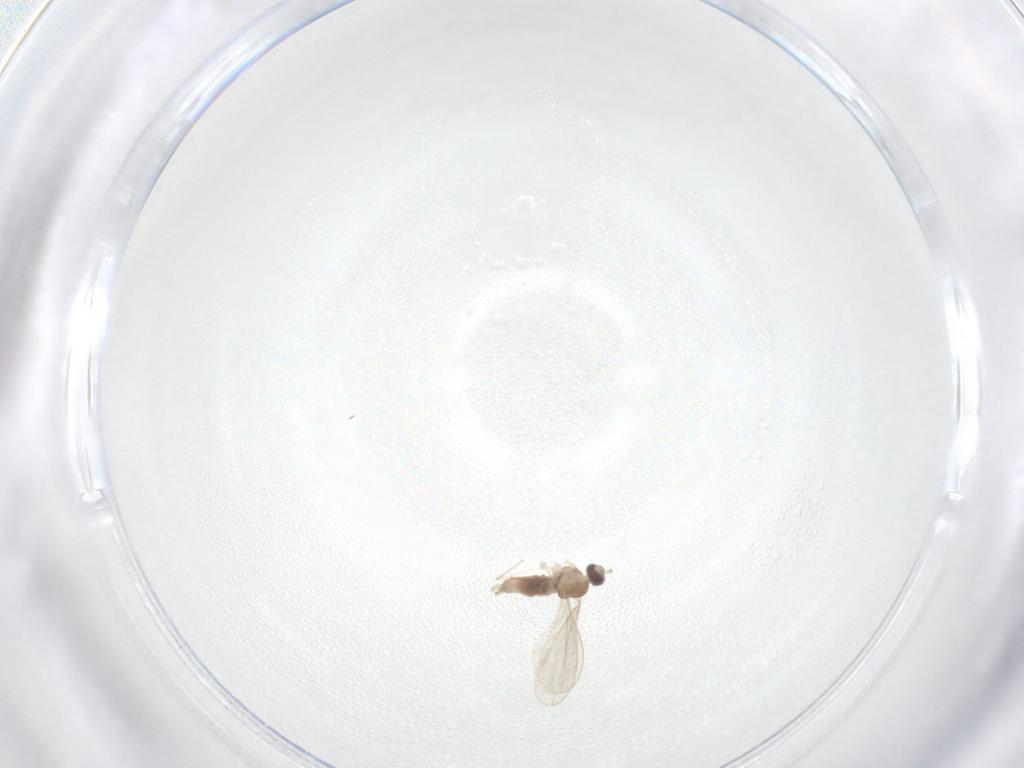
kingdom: Animalia
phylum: Arthropoda
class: Insecta
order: Diptera
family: Cecidomyiidae
